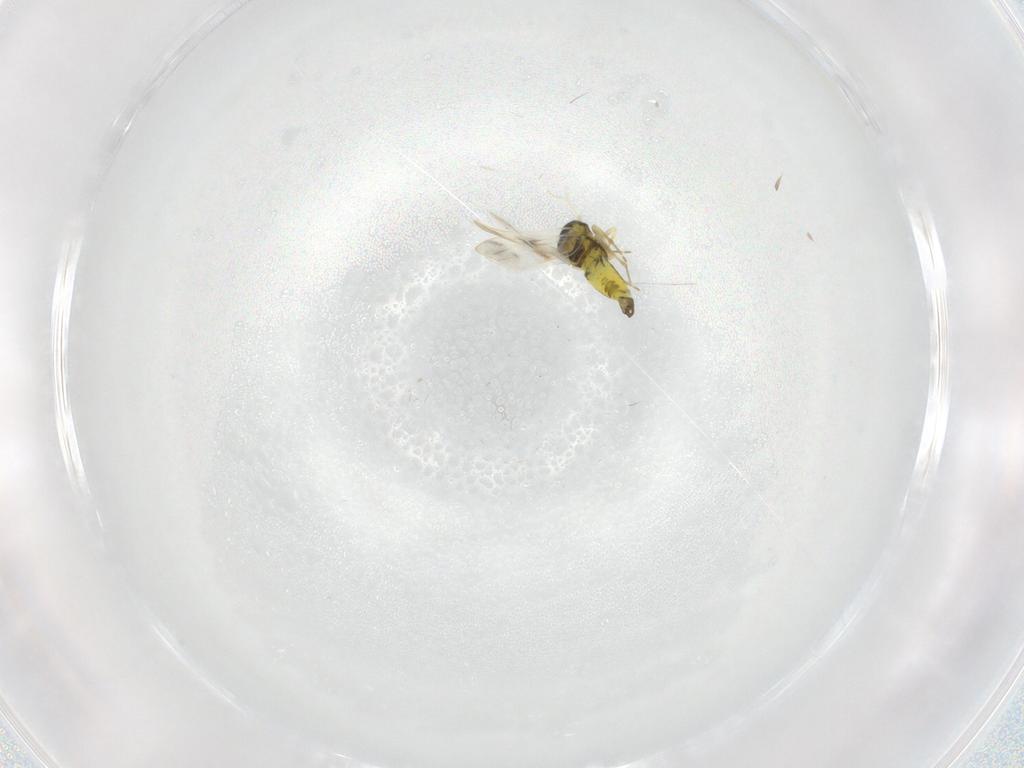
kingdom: Animalia
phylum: Arthropoda
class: Insecta
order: Hemiptera
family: Aleyrodidae
